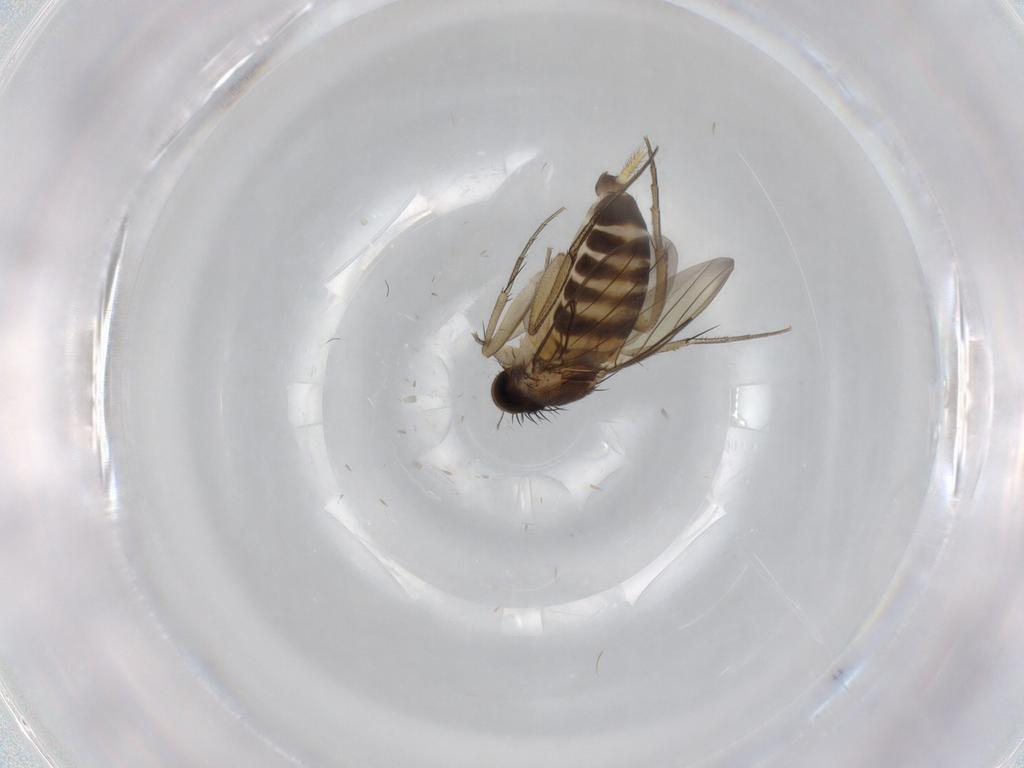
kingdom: Animalia
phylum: Arthropoda
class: Insecta
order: Diptera
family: Phoridae
